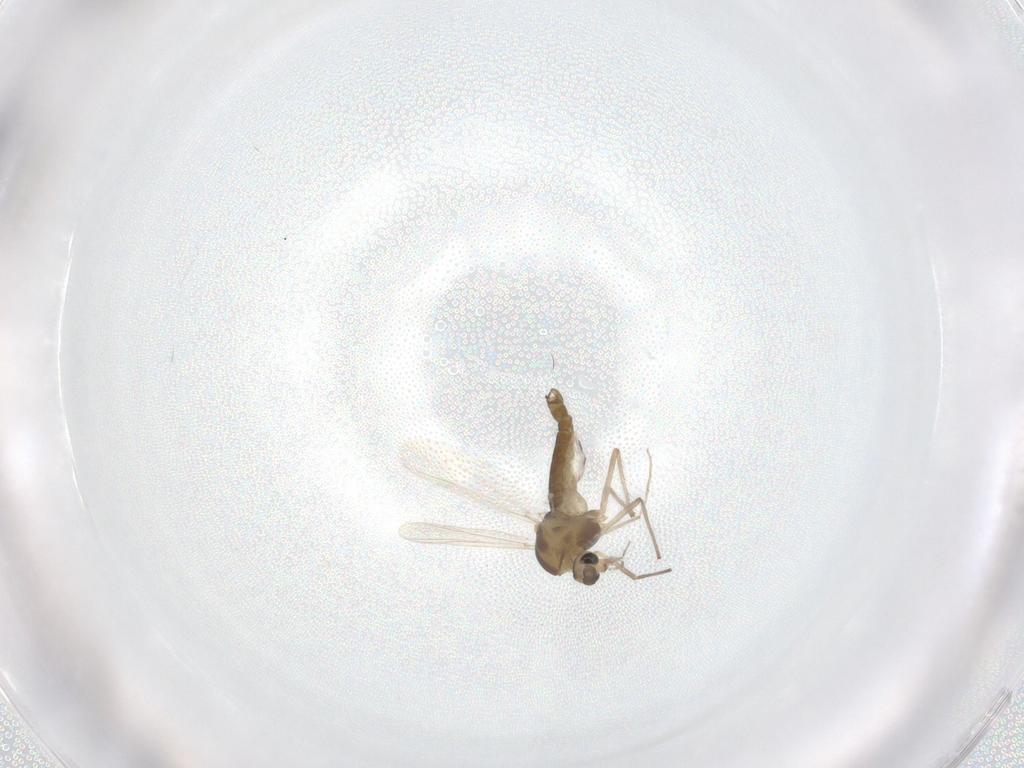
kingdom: Animalia
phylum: Arthropoda
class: Insecta
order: Diptera
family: Chironomidae
